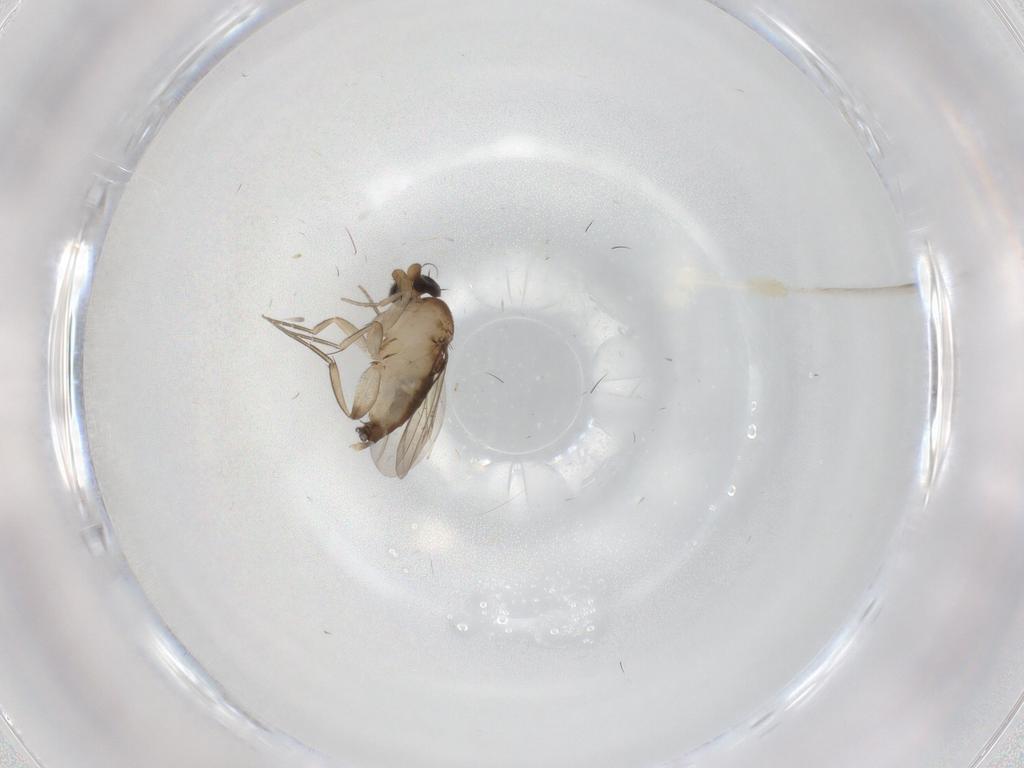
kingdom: Animalia
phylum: Arthropoda
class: Insecta
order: Diptera
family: Phoridae
